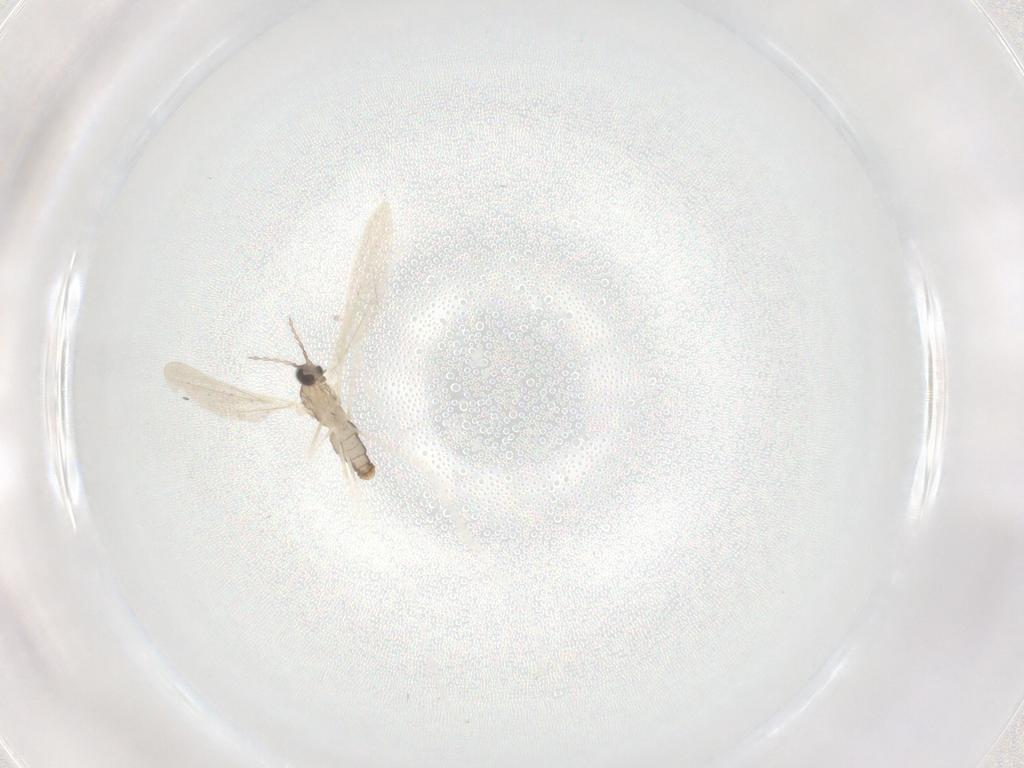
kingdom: Animalia
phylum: Arthropoda
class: Insecta
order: Diptera
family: Cecidomyiidae
